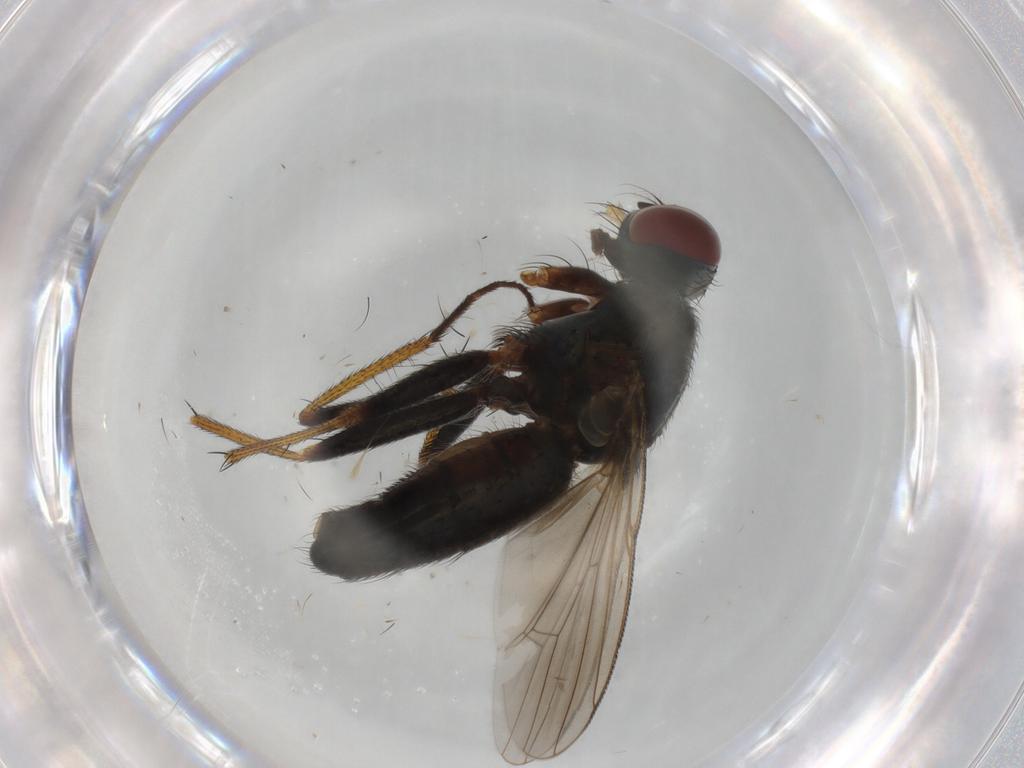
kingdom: Animalia
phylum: Arthropoda
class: Insecta
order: Diptera
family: Muscidae
